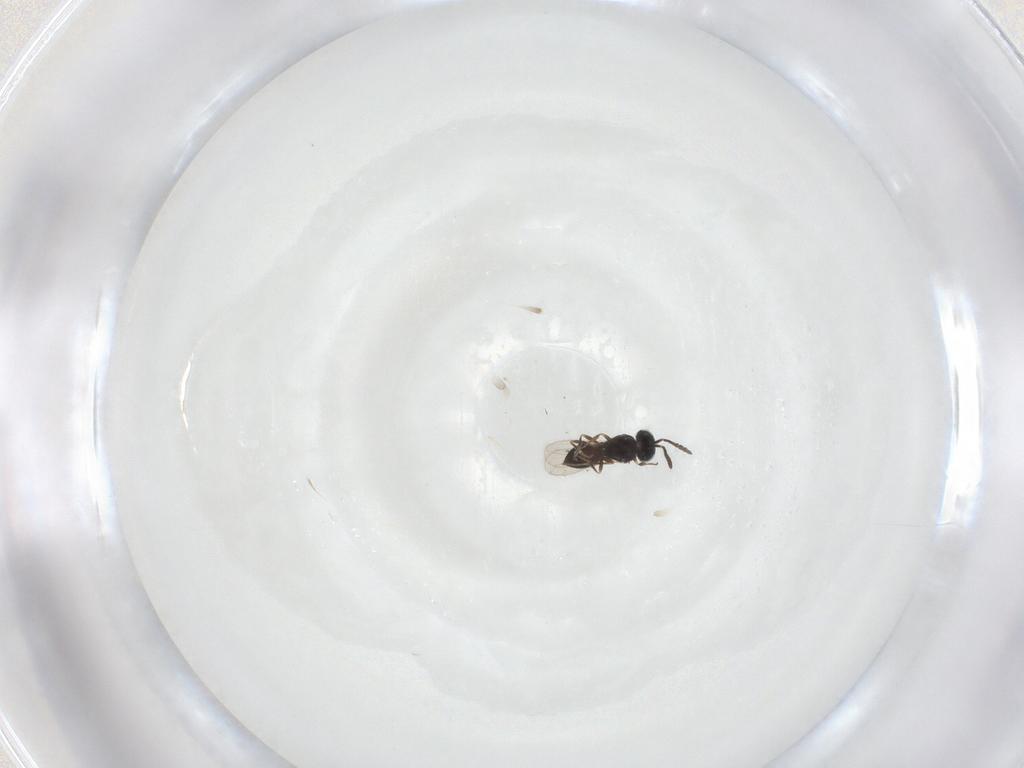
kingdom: Animalia
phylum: Arthropoda
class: Insecta
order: Hymenoptera
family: Scelionidae
